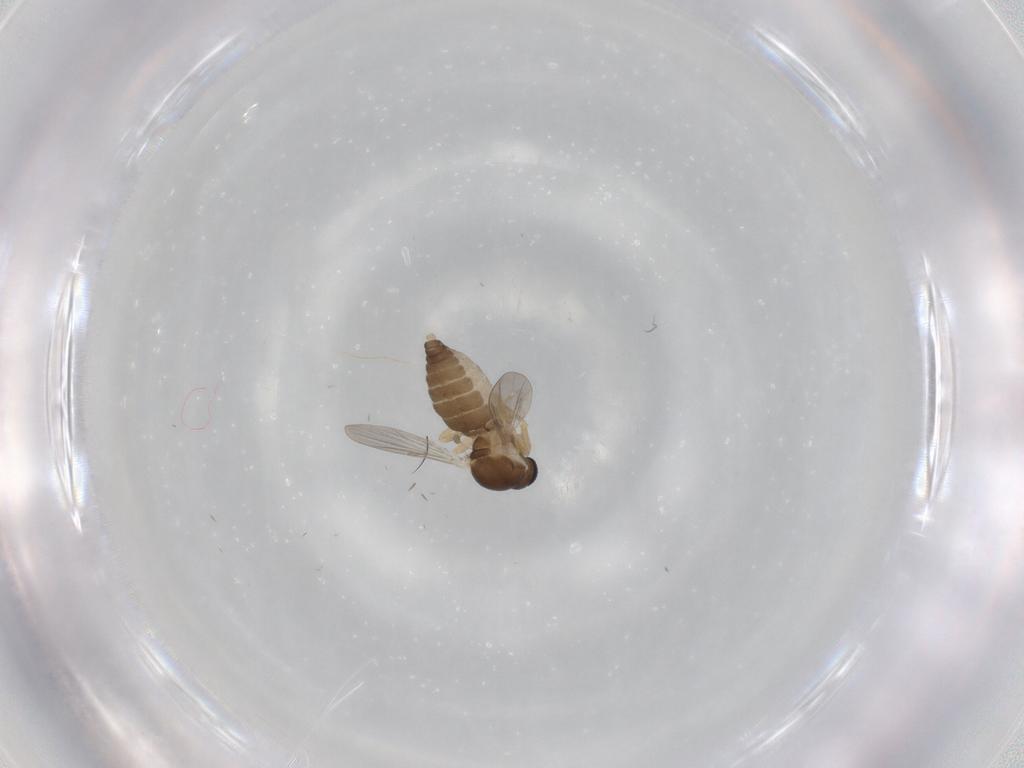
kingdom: Animalia
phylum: Arthropoda
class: Insecta
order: Diptera
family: Ceratopogonidae
